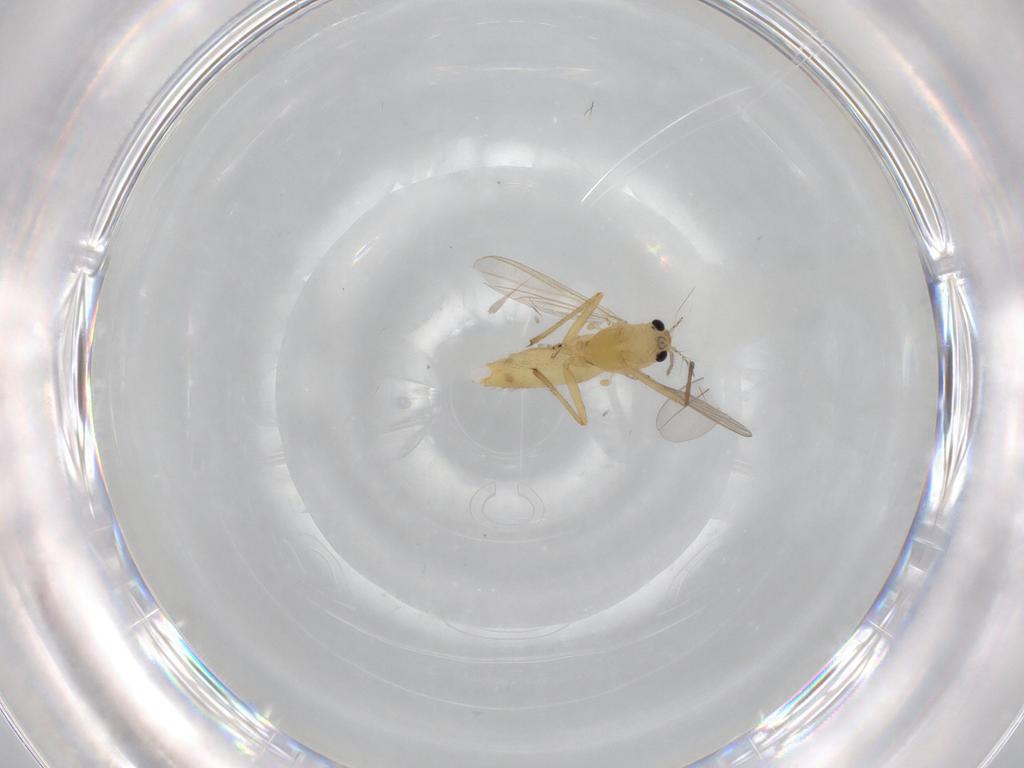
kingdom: Animalia
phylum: Arthropoda
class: Insecta
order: Diptera
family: Chironomidae
